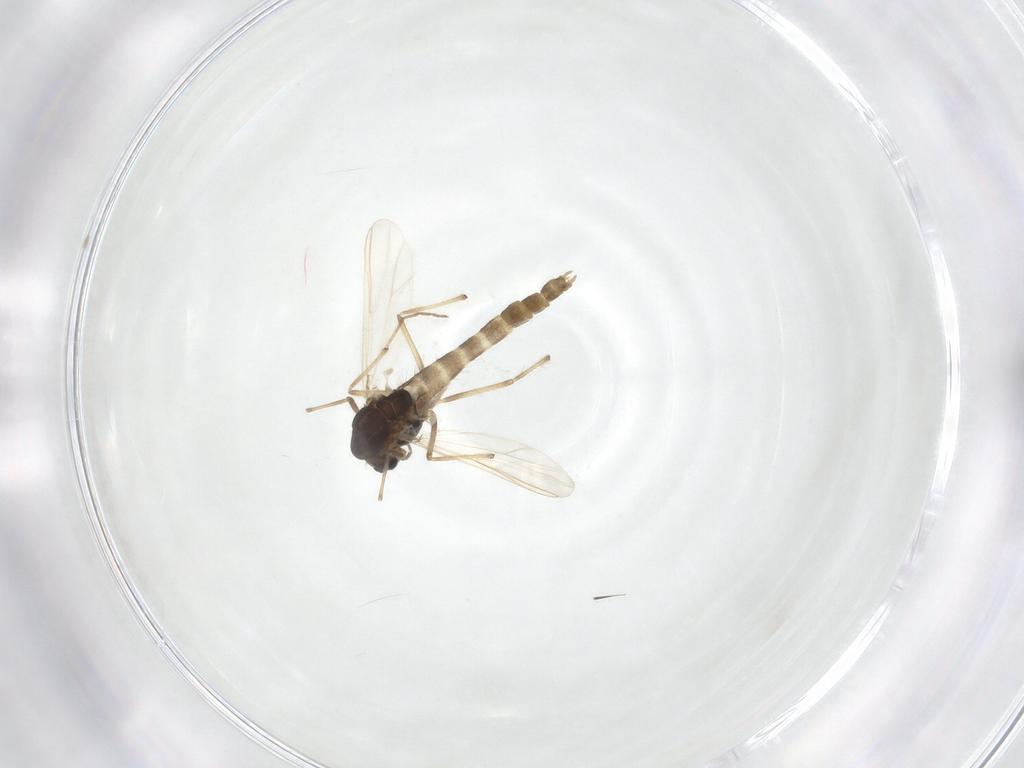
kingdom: Animalia
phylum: Arthropoda
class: Insecta
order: Diptera
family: Chironomidae
